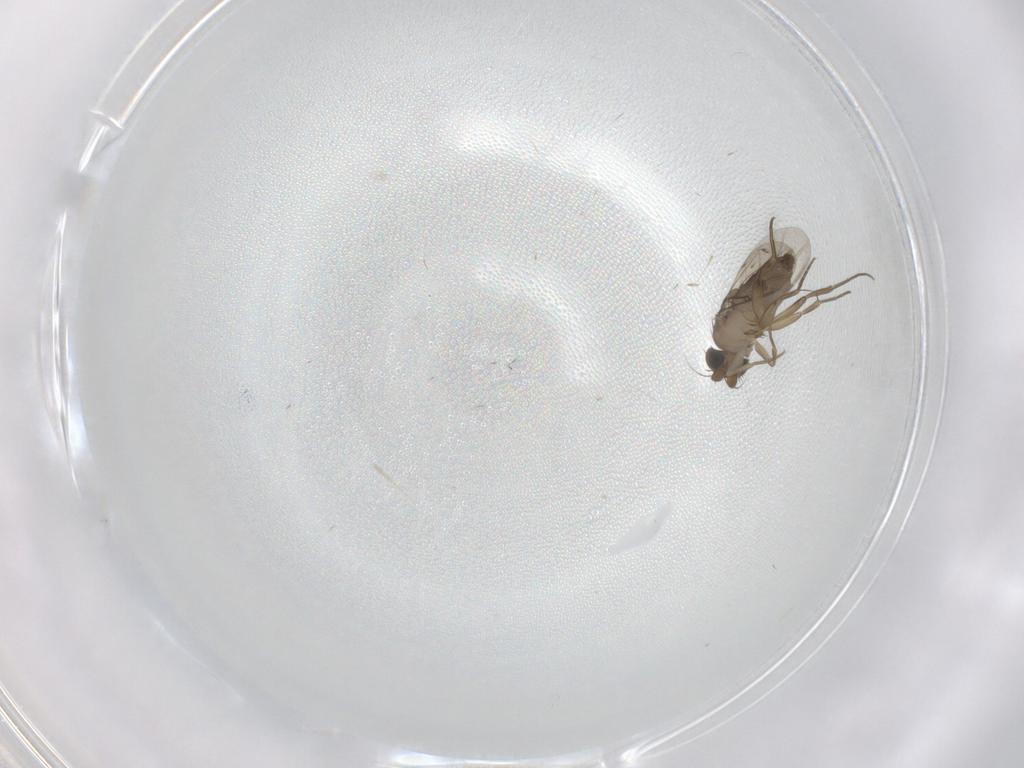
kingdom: Animalia
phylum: Arthropoda
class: Insecta
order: Diptera
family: Phoridae
